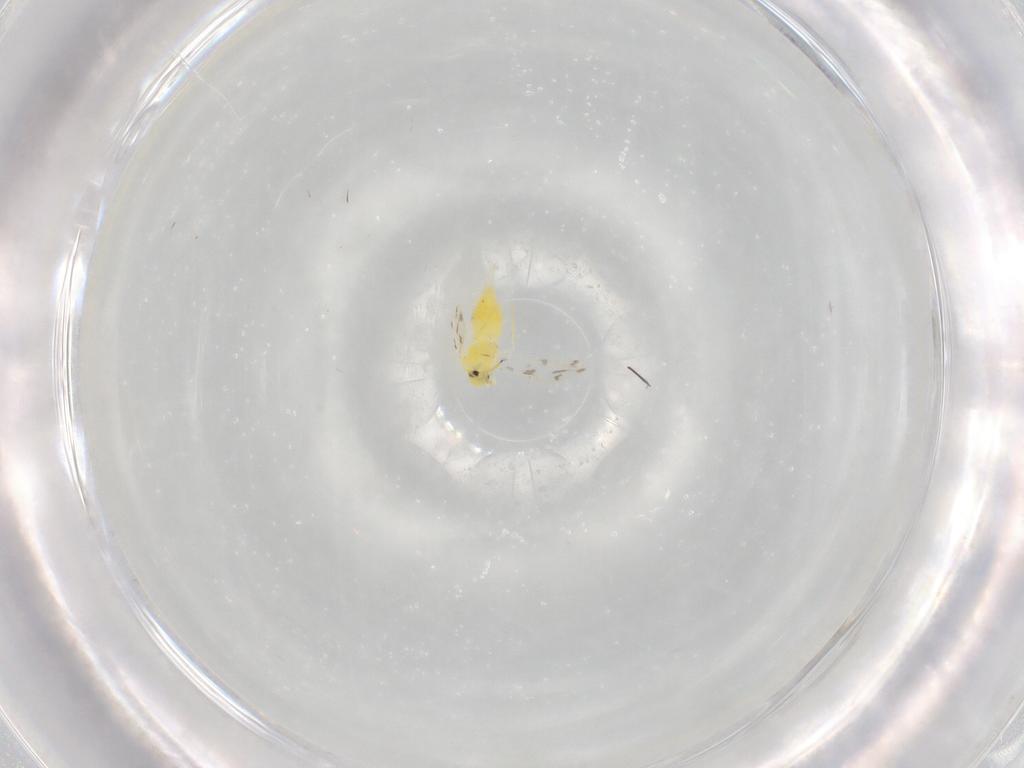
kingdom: Animalia
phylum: Arthropoda
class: Insecta
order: Hemiptera
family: Aleyrodidae
